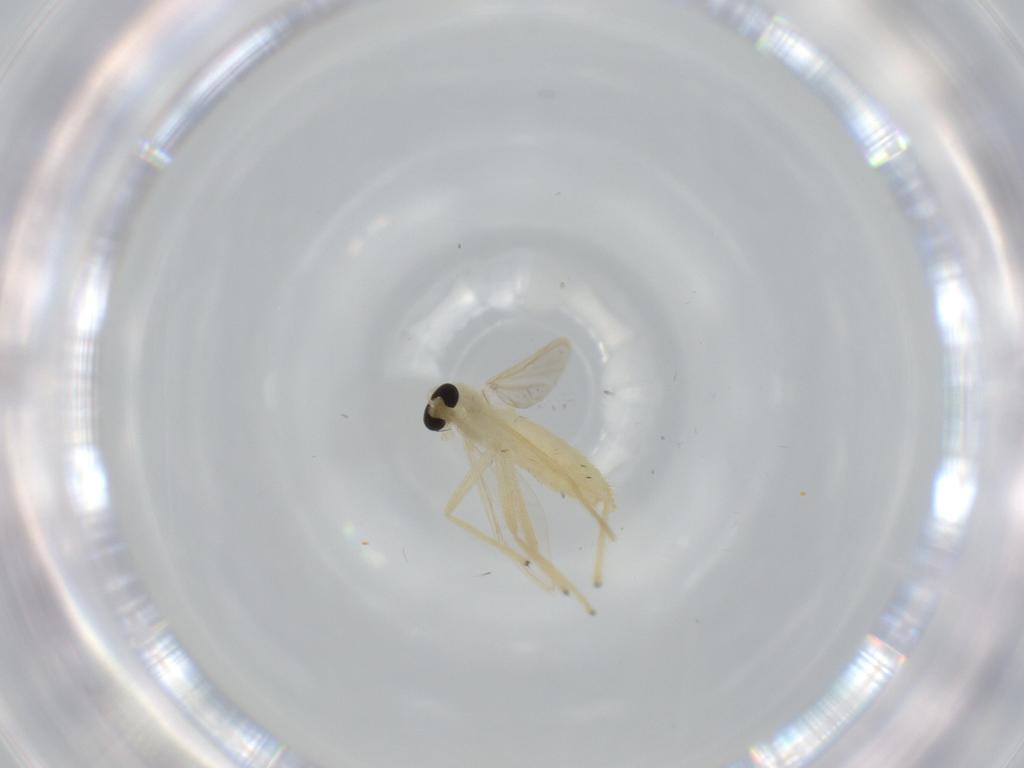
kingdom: Animalia
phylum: Arthropoda
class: Insecta
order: Diptera
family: Chironomidae
